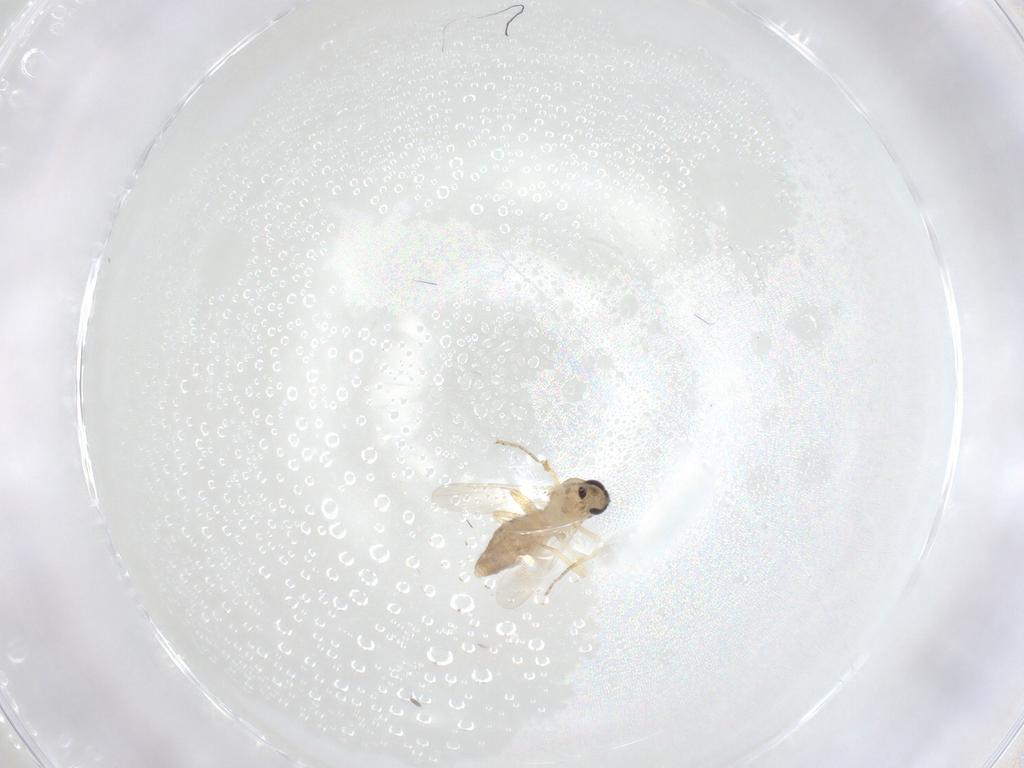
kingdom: Animalia
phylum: Arthropoda
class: Insecta
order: Diptera
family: Ceratopogonidae
